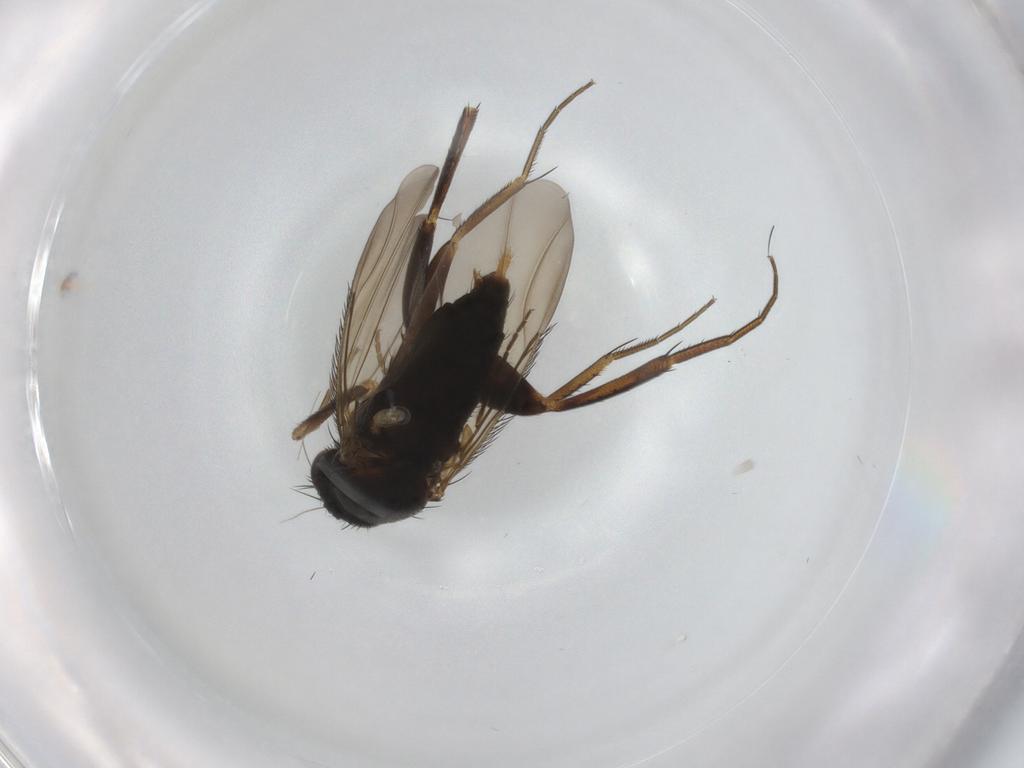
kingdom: Animalia
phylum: Arthropoda
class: Insecta
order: Diptera
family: Phoridae
